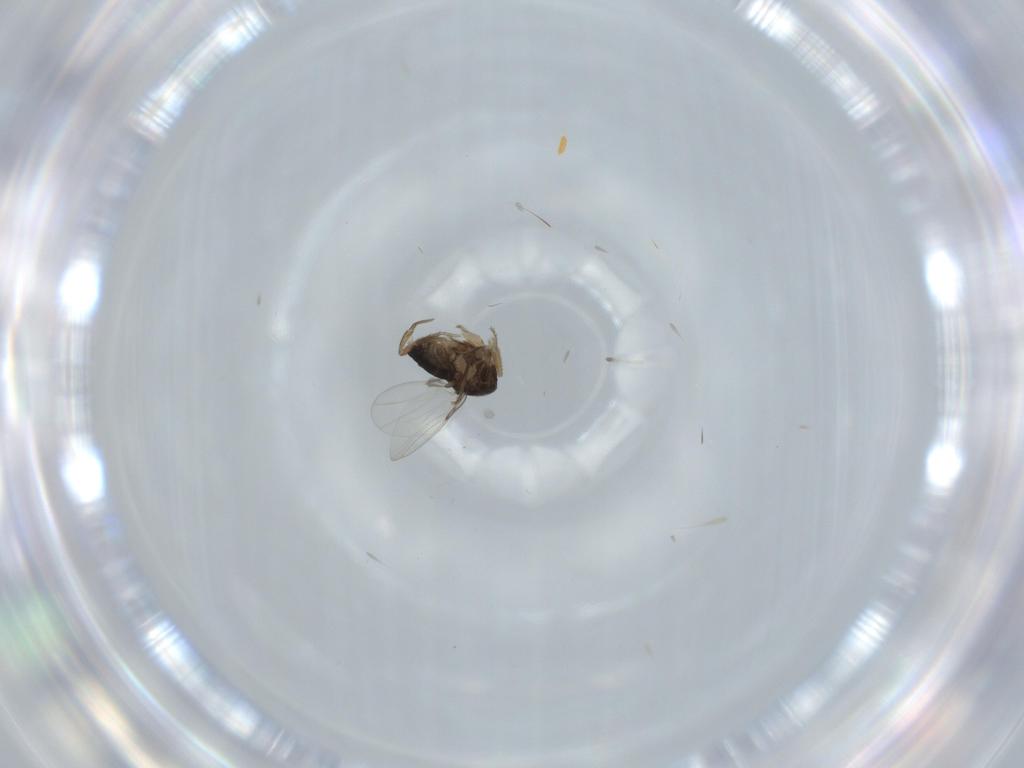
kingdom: Animalia
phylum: Arthropoda
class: Insecta
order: Diptera
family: Phoridae
